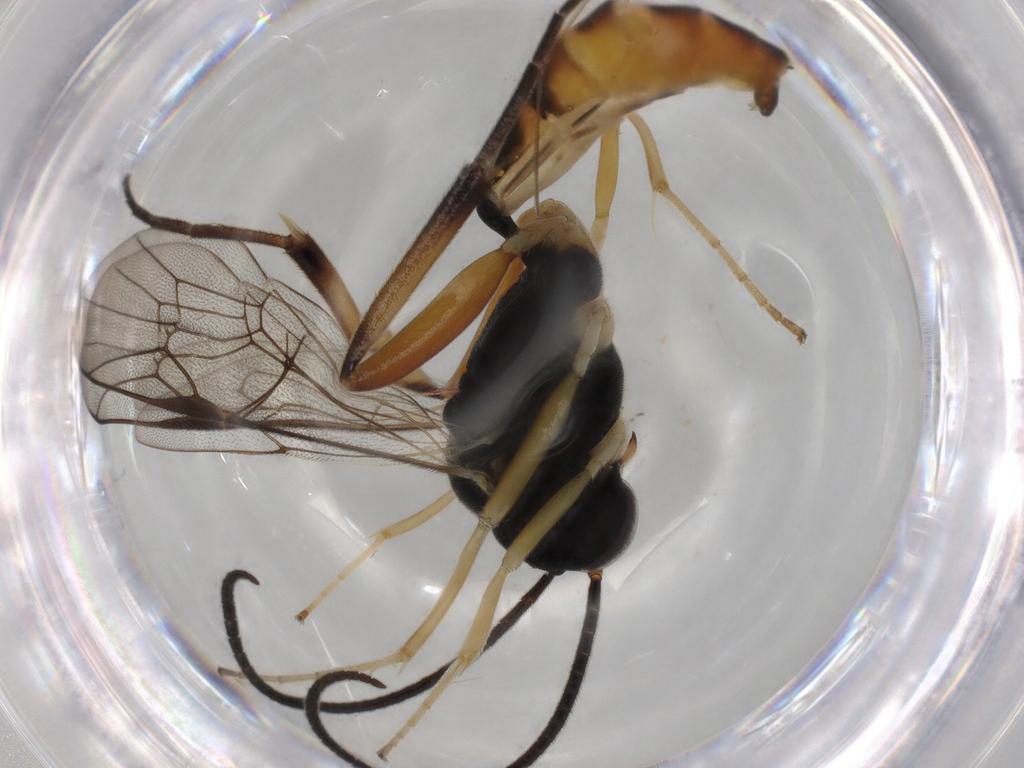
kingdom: Animalia
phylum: Arthropoda
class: Insecta
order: Hymenoptera
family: Ichneumonidae
